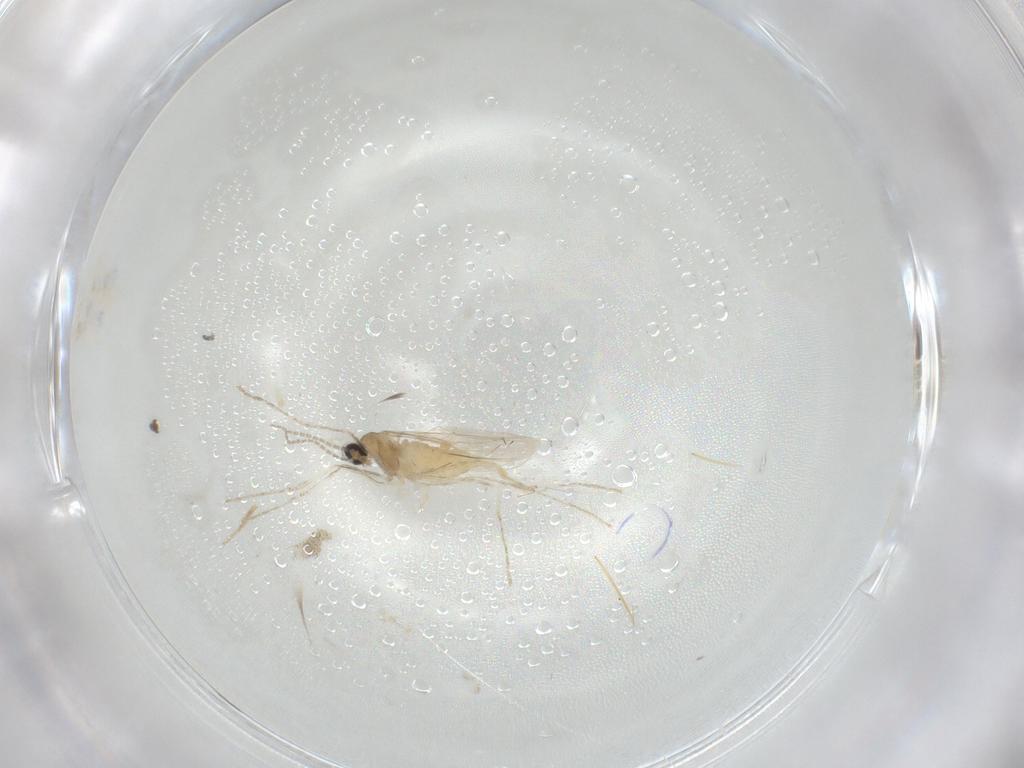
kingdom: Animalia
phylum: Arthropoda
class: Insecta
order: Diptera
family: Cecidomyiidae
